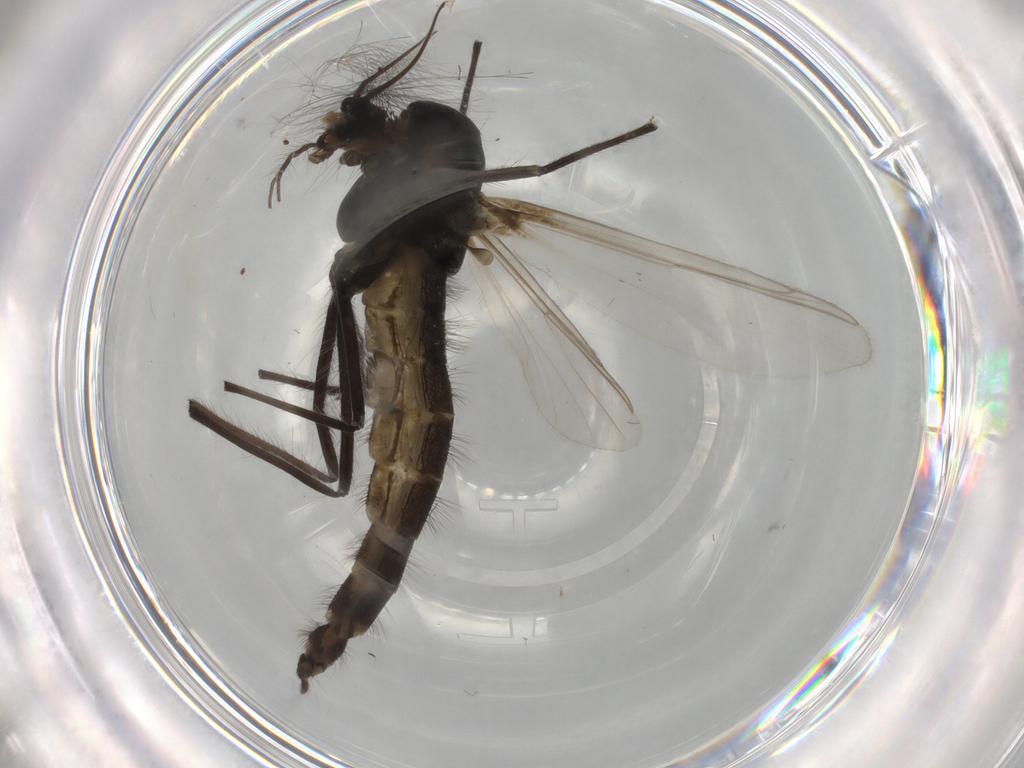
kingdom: Animalia
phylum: Arthropoda
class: Insecta
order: Diptera
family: Chironomidae
